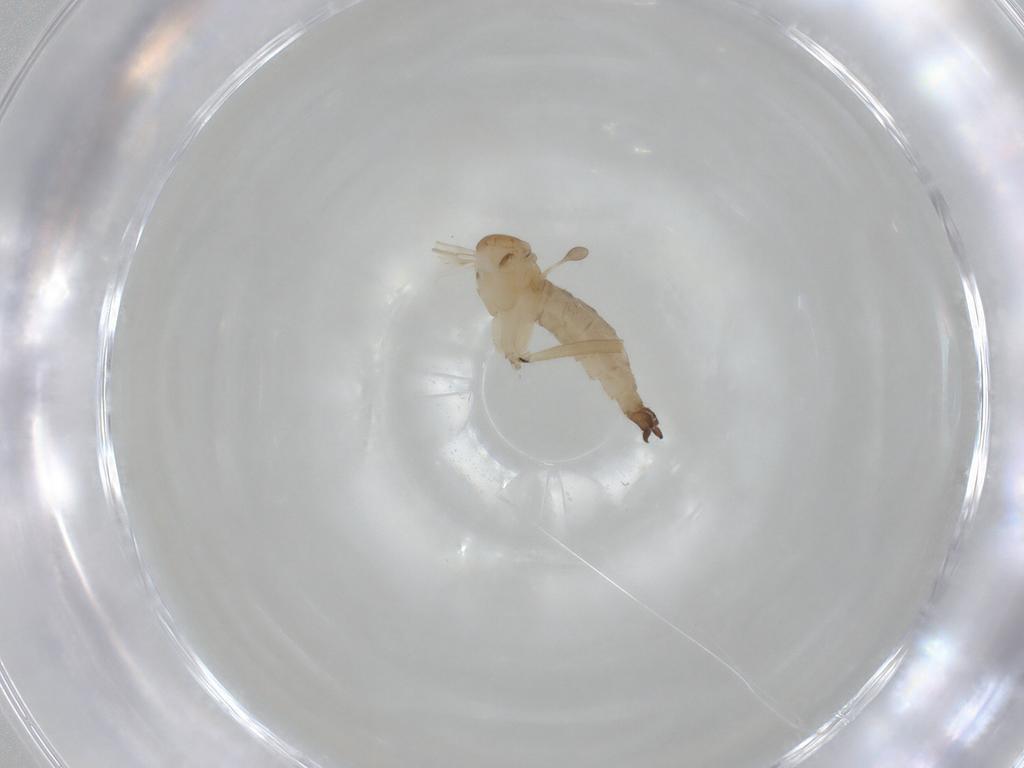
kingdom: Animalia
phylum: Arthropoda
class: Insecta
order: Diptera
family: Sciaridae
